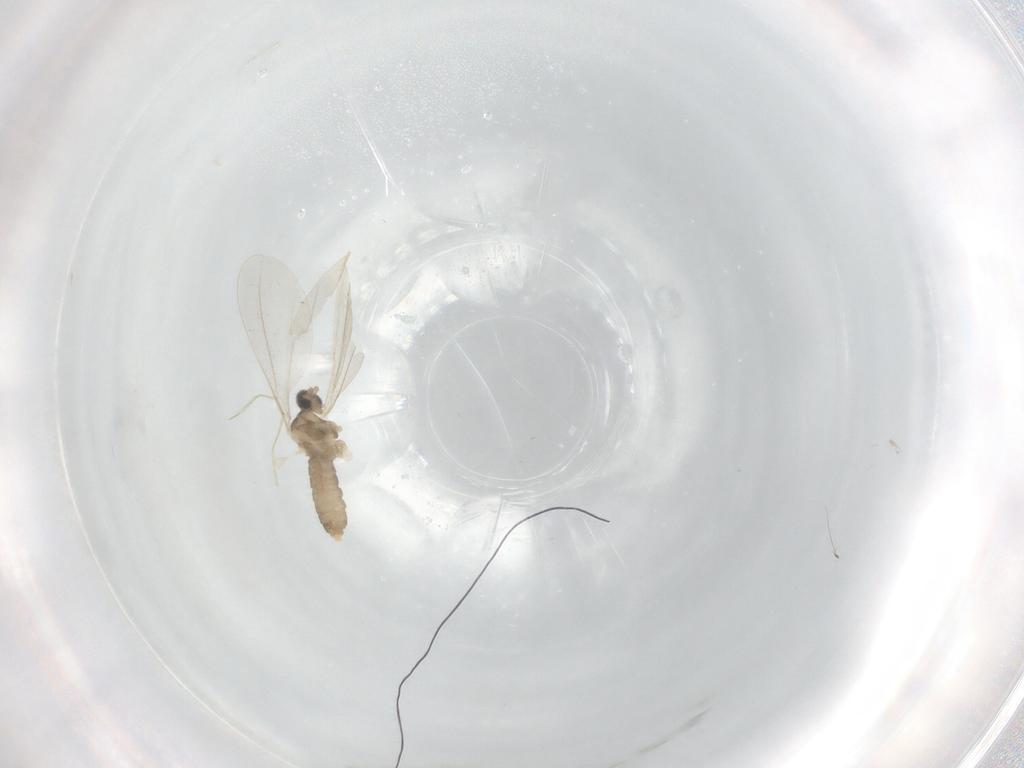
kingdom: Animalia
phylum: Arthropoda
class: Insecta
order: Diptera
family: Cecidomyiidae
